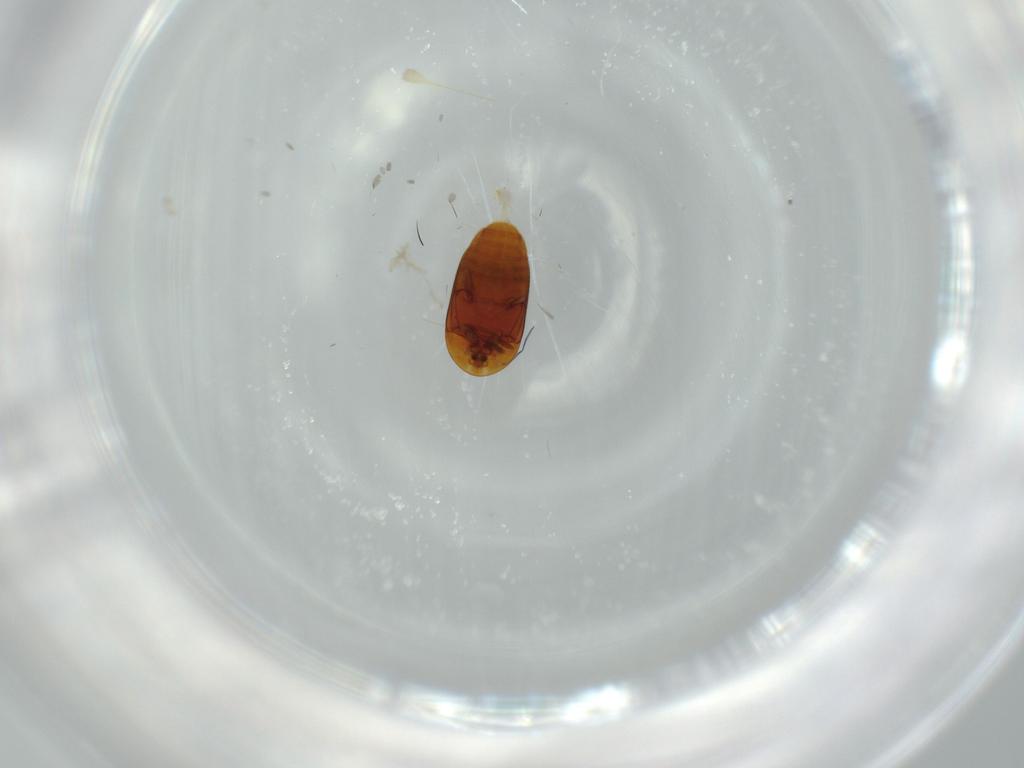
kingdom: Animalia
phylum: Arthropoda
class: Insecta
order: Coleoptera
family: Corylophidae
